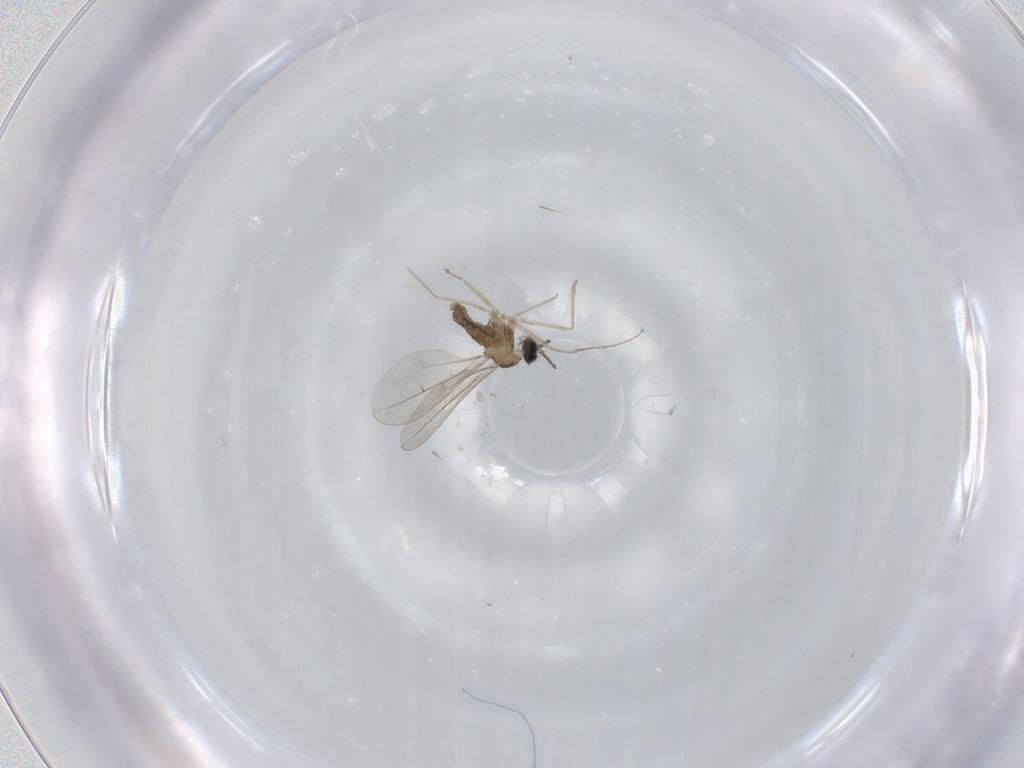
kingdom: Animalia
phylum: Arthropoda
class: Insecta
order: Diptera
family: Cecidomyiidae
